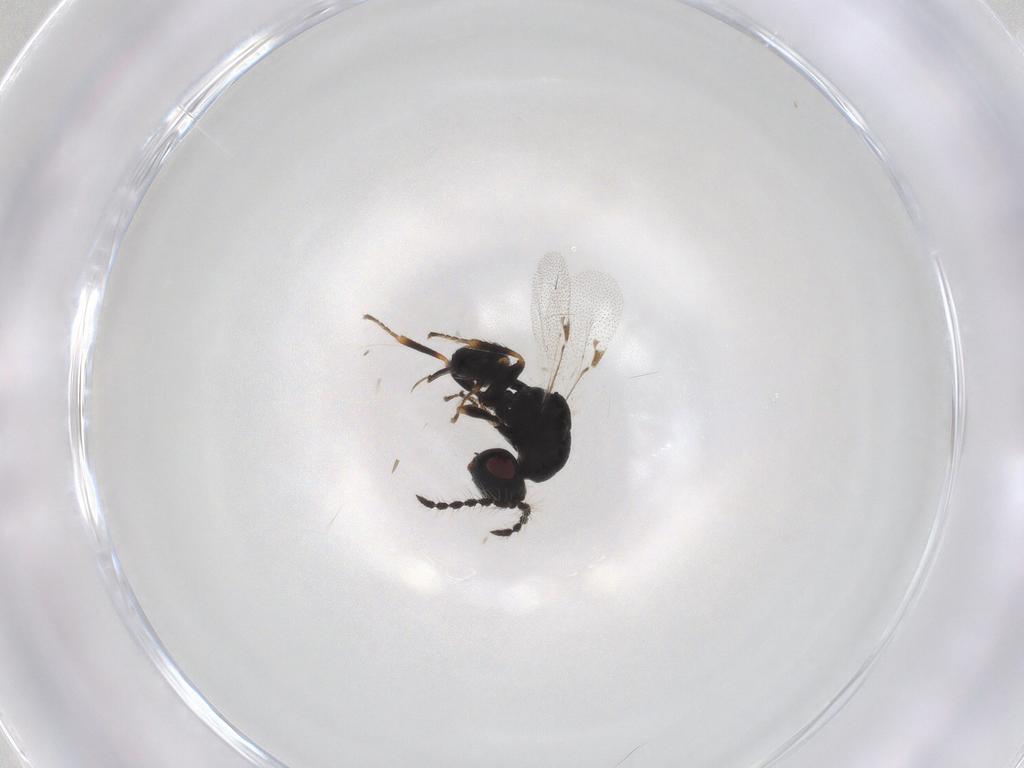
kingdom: Animalia
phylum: Arthropoda
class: Insecta
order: Hymenoptera
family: Eurytomidae
